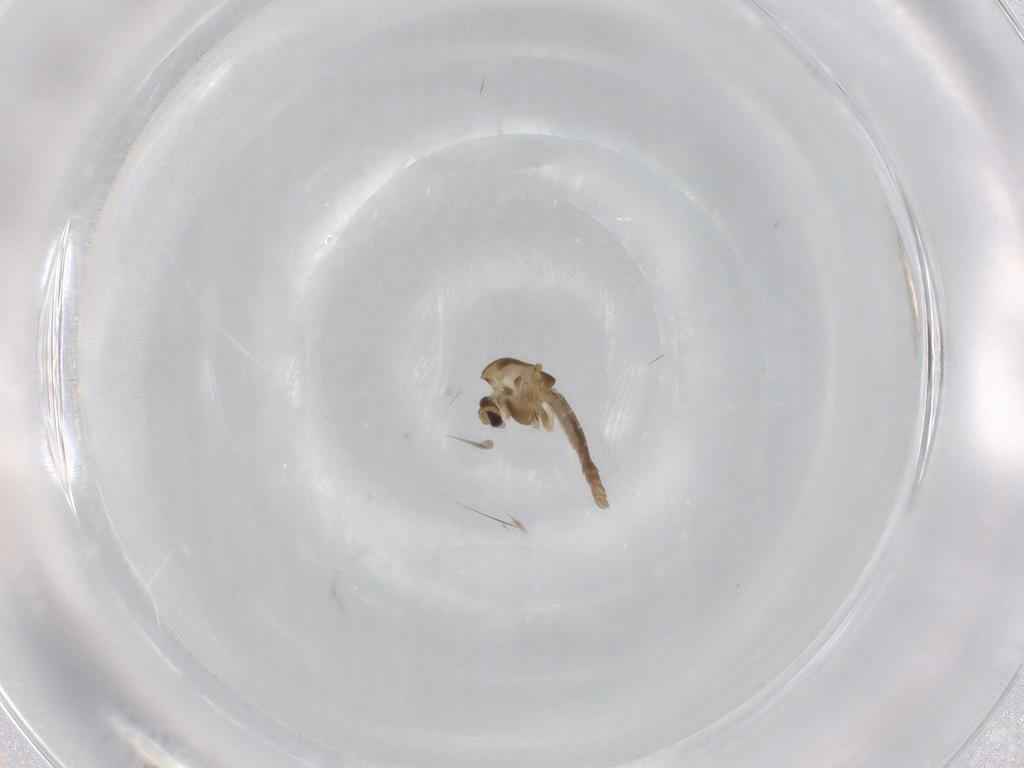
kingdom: Animalia
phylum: Arthropoda
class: Insecta
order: Diptera
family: Chironomidae
